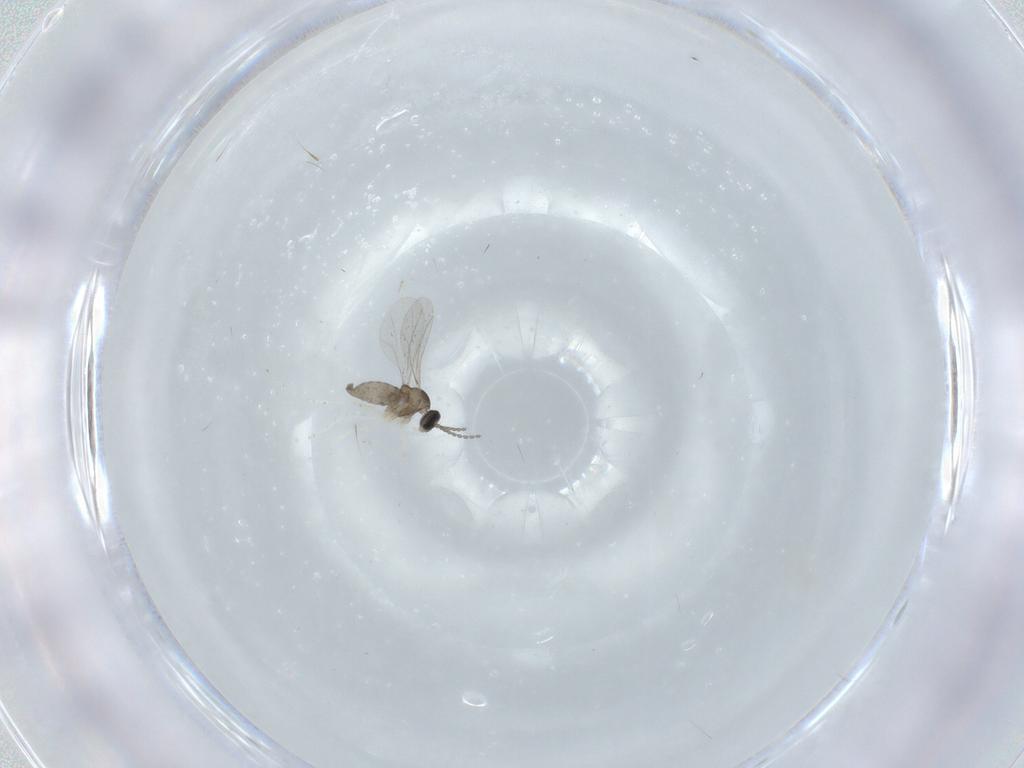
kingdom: Animalia
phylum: Arthropoda
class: Insecta
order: Diptera
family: Cecidomyiidae
